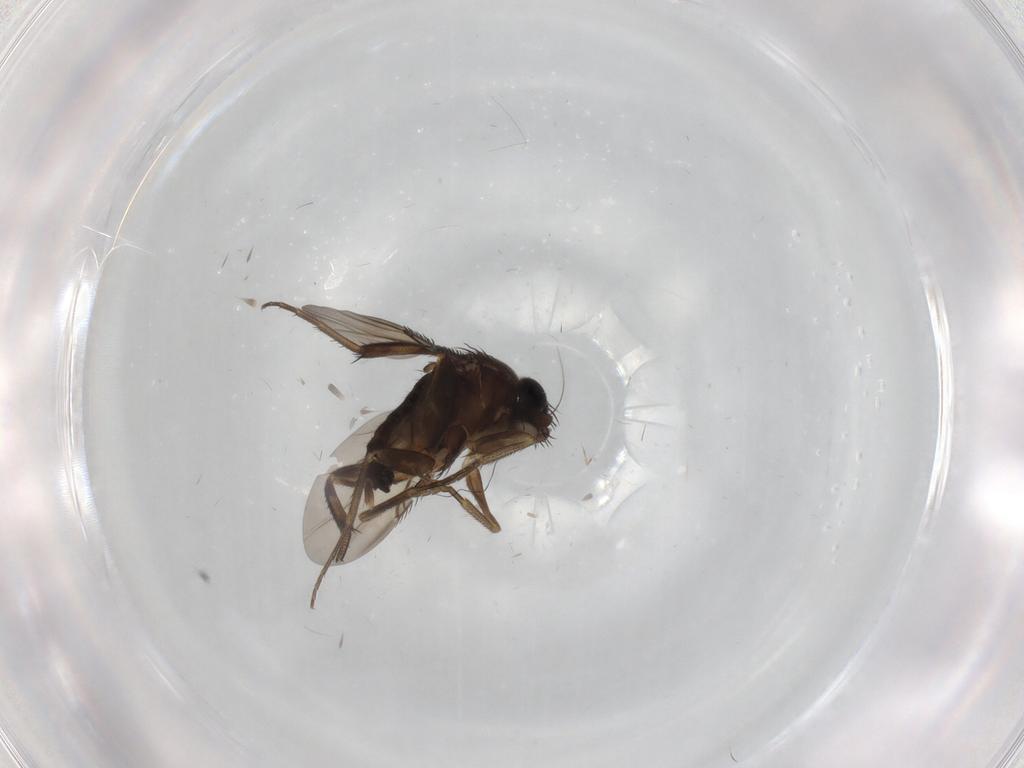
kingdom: Animalia
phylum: Arthropoda
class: Insecta
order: Diptera
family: Phoridae
